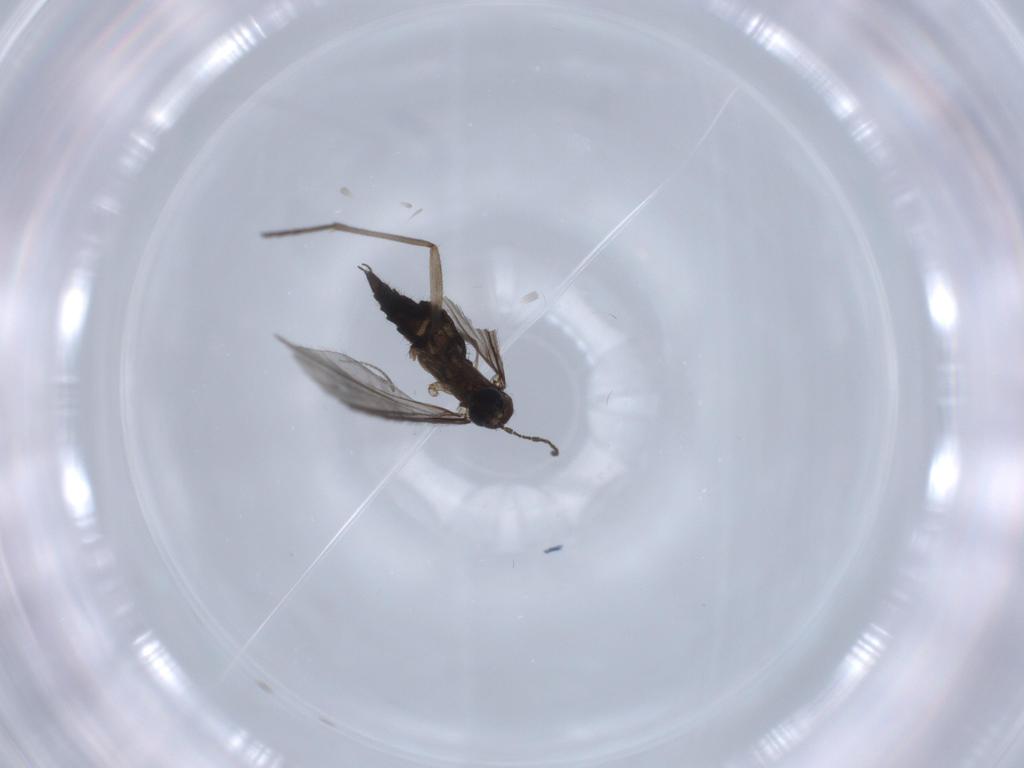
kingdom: Animalia
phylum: Arthropoda
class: Insecta
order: Diptera
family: Sciaridae
